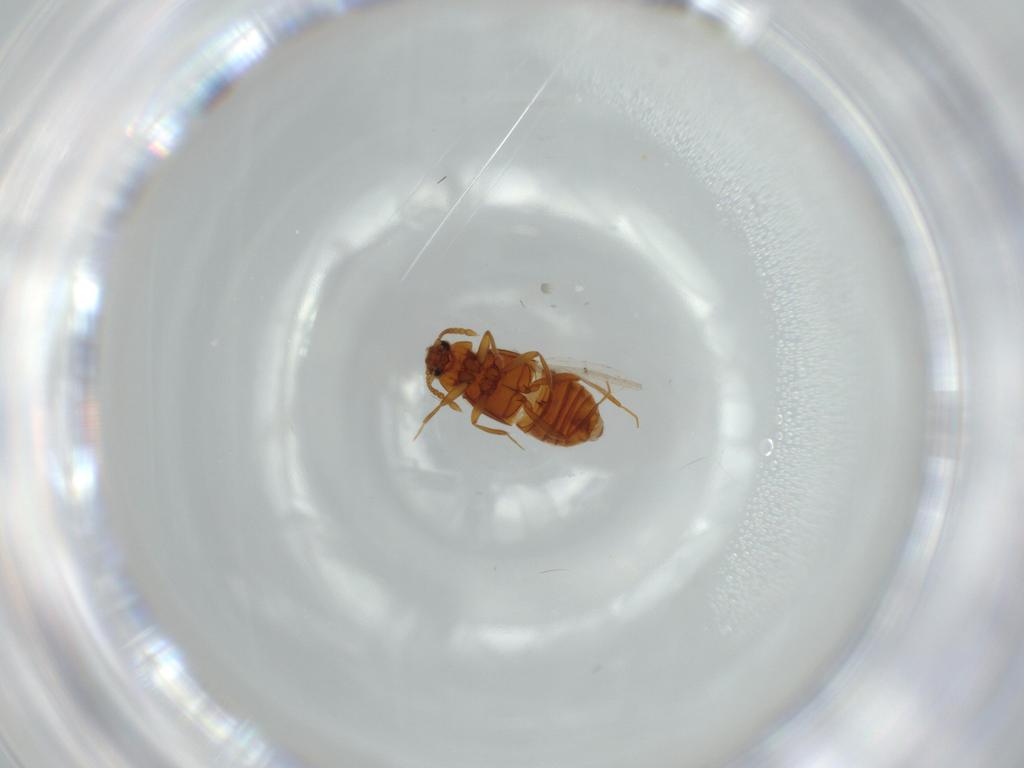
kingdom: Animalia
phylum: Arthropoda
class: Insecta
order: Coleoptera
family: Staphylinidae
